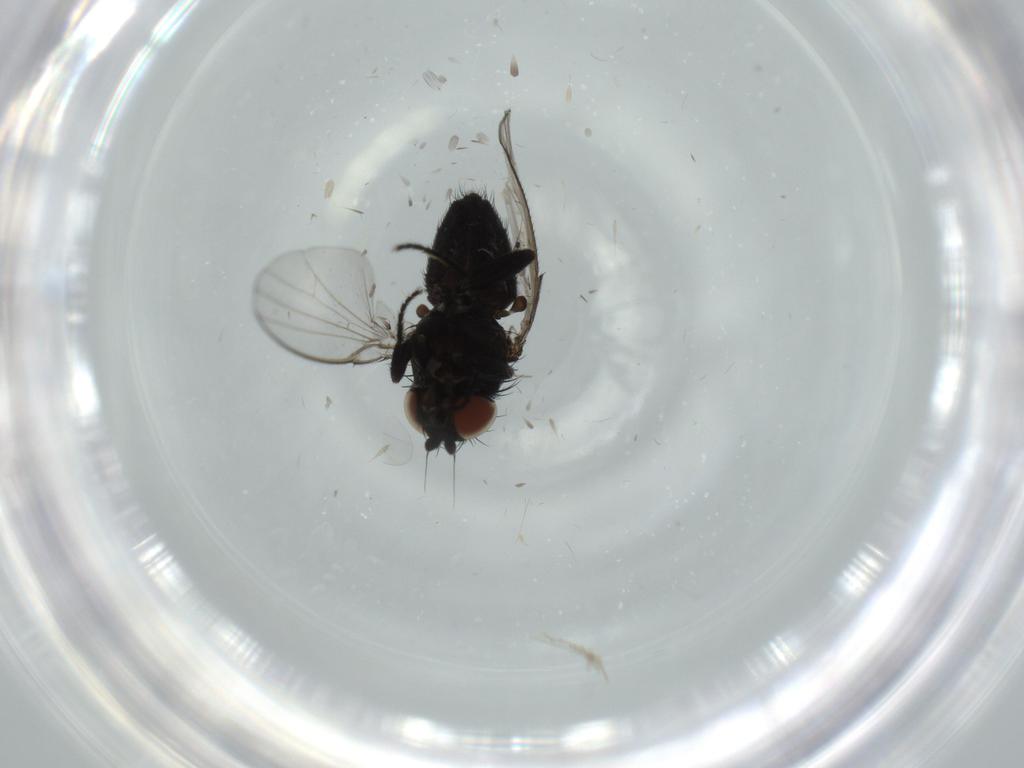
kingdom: Animalia
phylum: Arthropoda
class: Insecta
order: Diptera
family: Milichiidae
